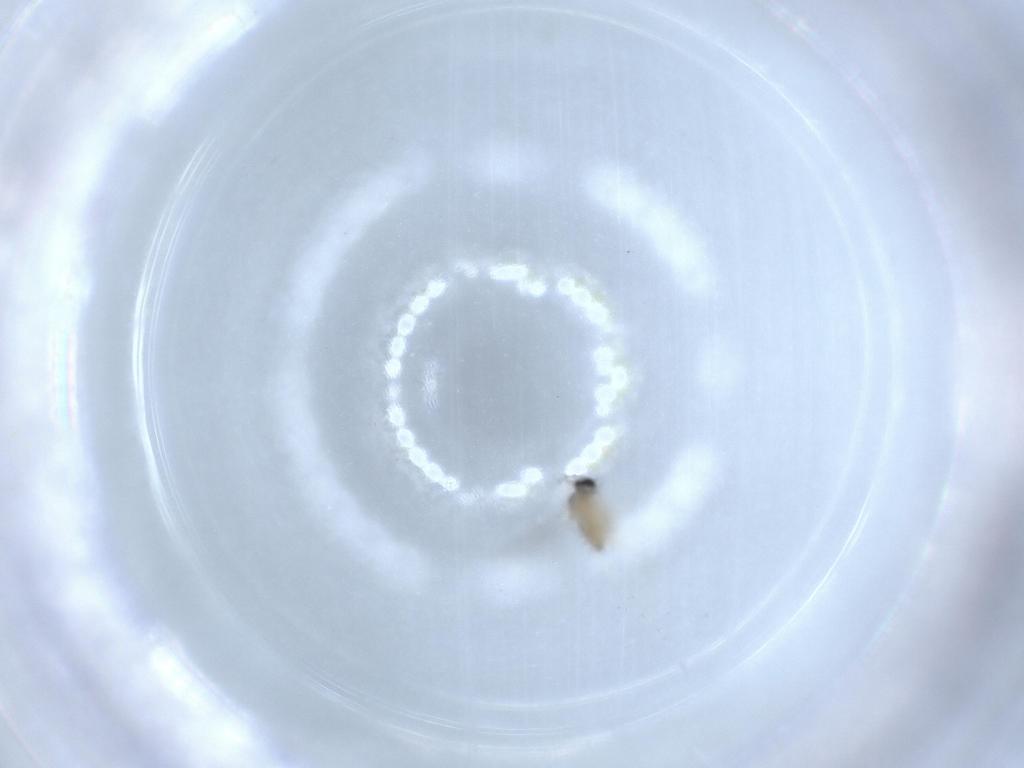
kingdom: Animalia
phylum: Arthropoda
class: Insecta
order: Diptera
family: Cecidomyiidae
